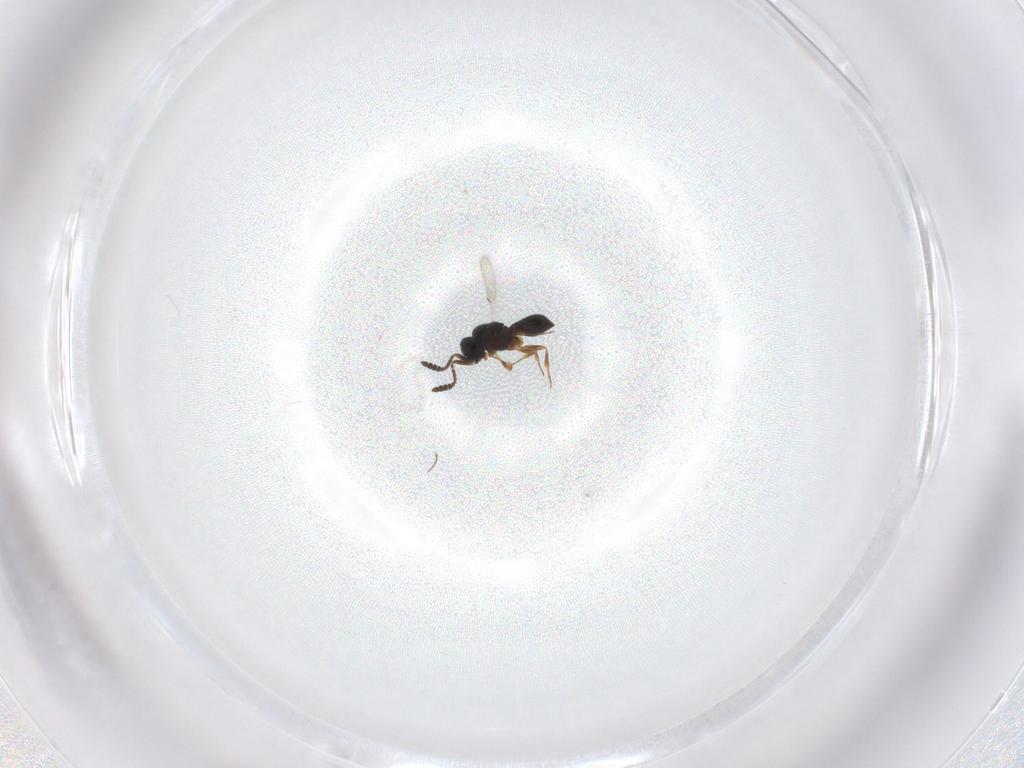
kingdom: Animalia
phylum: Arthropoda
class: Insecta
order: Hymenoptera
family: Scelionidae
